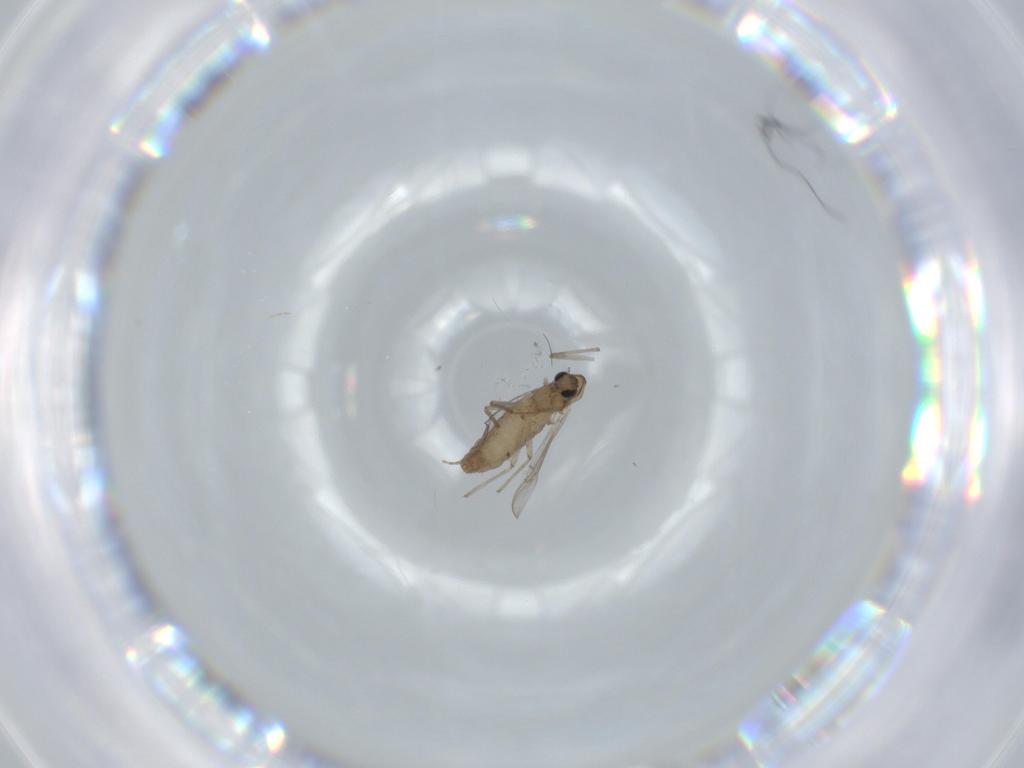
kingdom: Animalia
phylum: Arthropoda
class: Insecta
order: Diptera
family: Chironomidae
